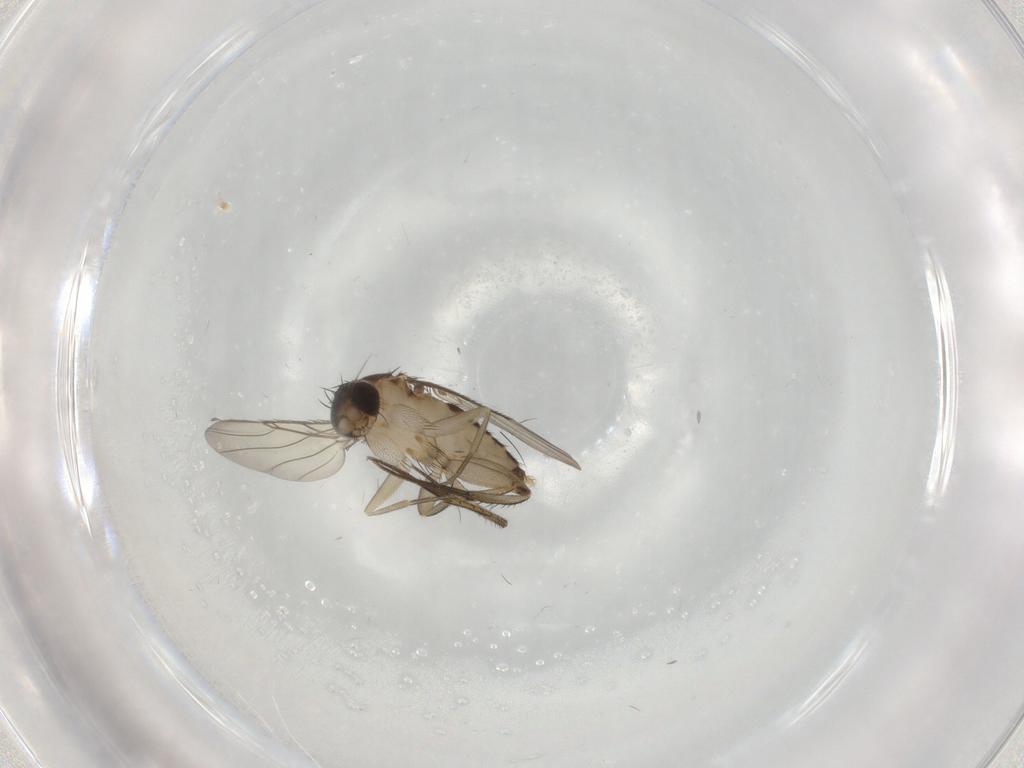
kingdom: Animalia
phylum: Arthropoda
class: Insecta
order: Diptera
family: Phoridae
